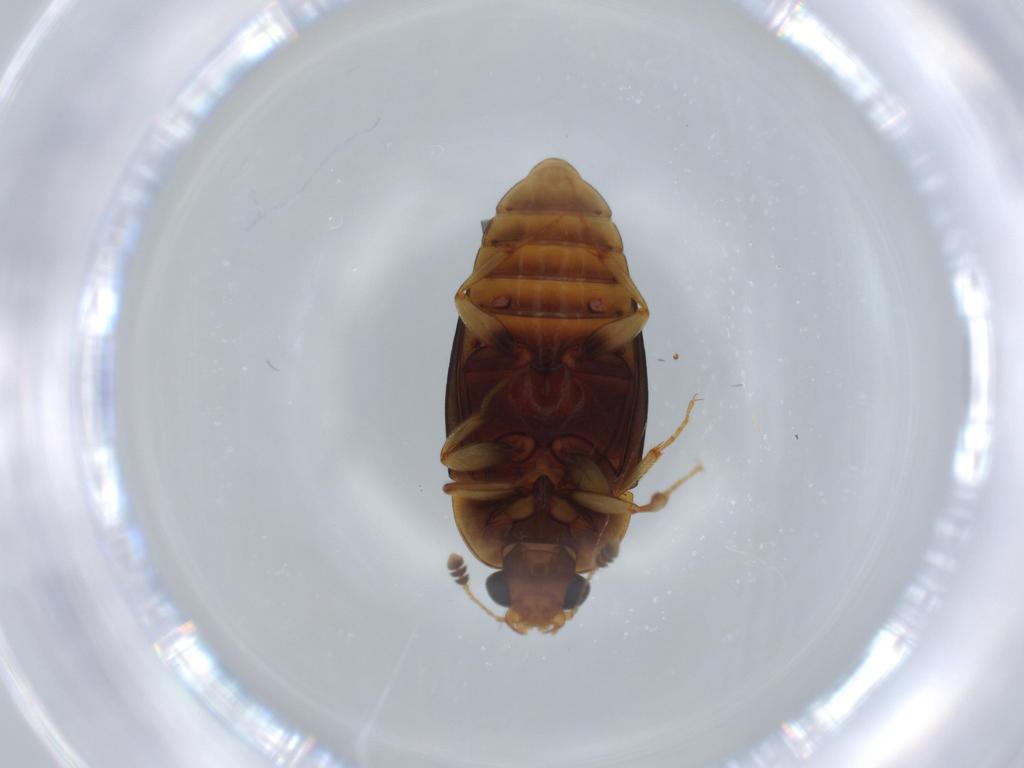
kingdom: Animalia
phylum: Arthropoda
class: Insecta
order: Coleoptera
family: Nitidulidae
